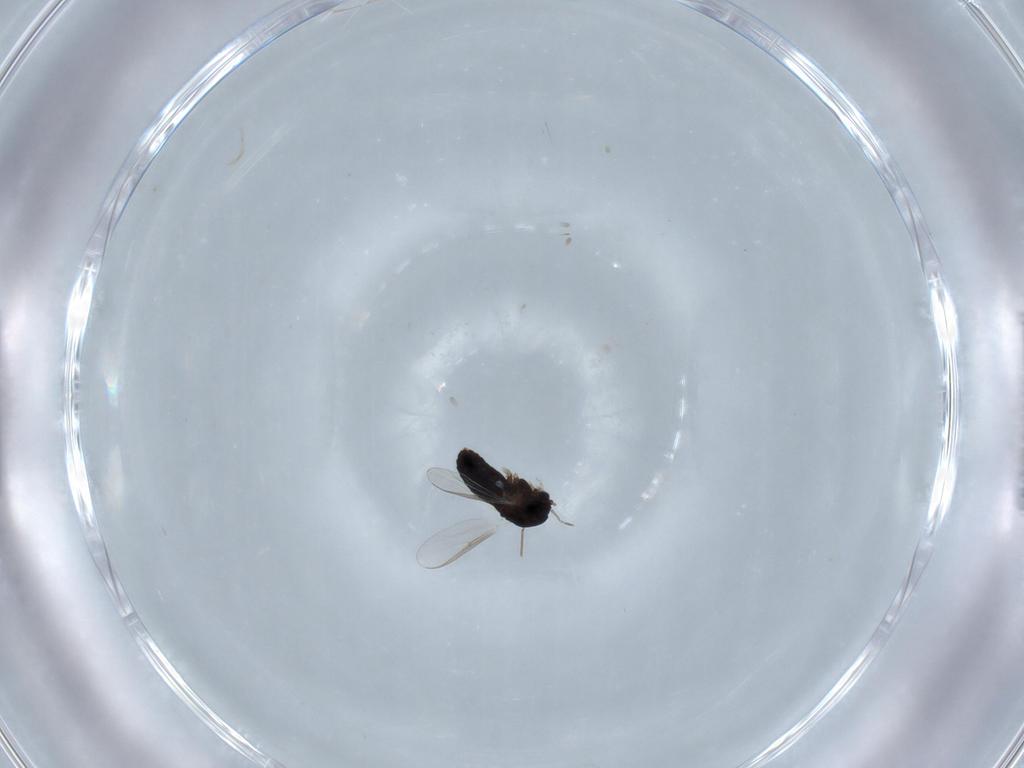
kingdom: Animalia
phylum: Arthropoda
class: Insecta
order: Diptera
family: Chironomidae
